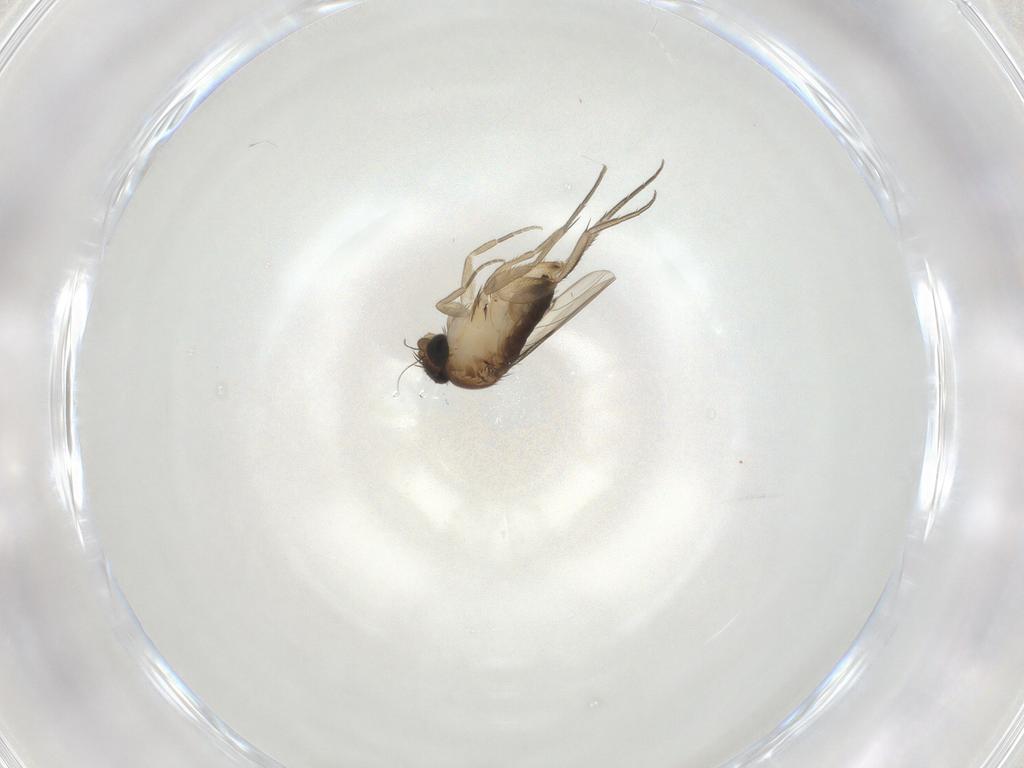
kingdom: Animalia
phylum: Arthropoda
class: Insecta
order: Diptera
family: Phoridae
